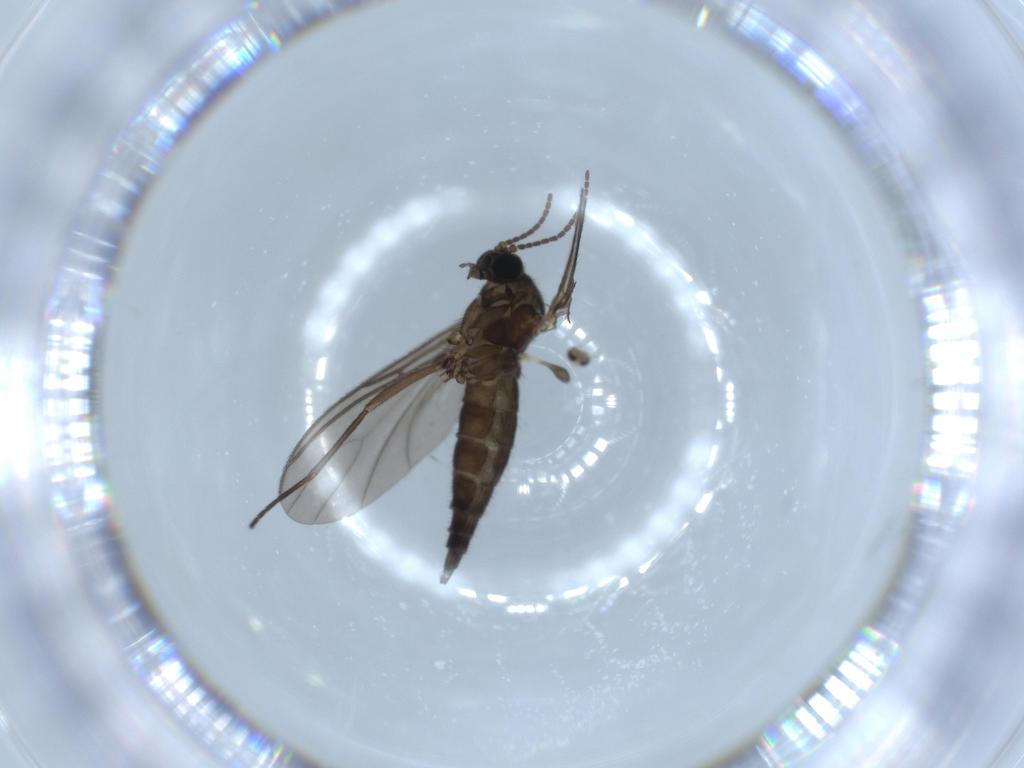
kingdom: Animalia
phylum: Arthropoda
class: Insecta
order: Diptera
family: Sciaridae
